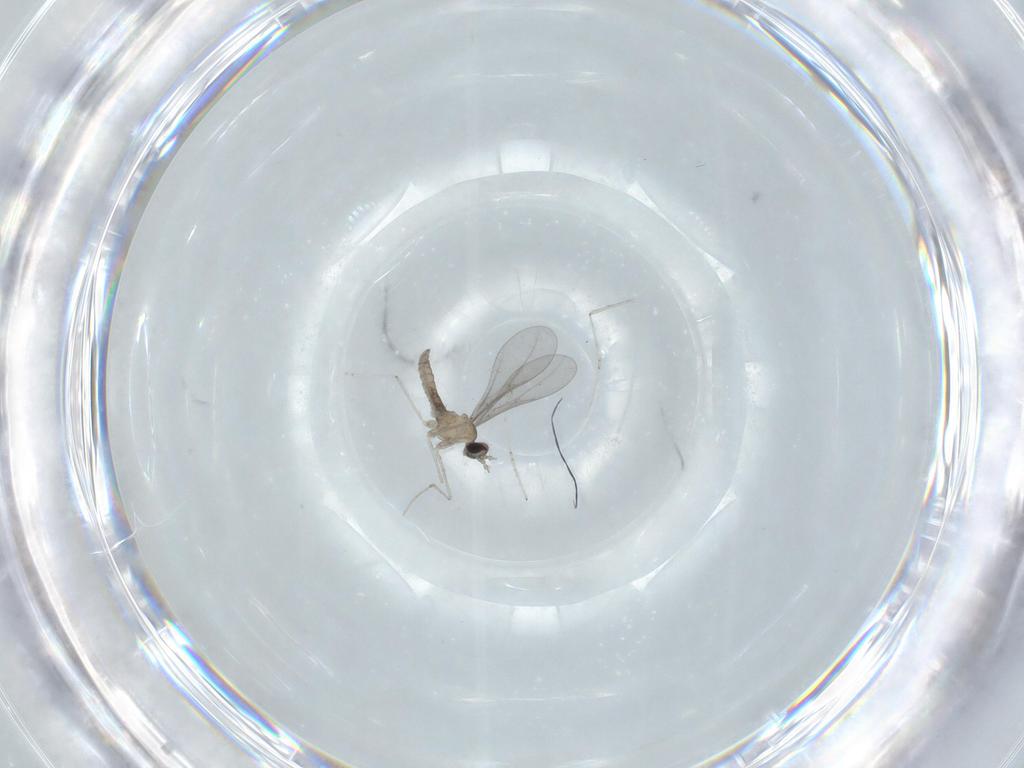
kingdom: Animalia
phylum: Arthropoda
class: Insecta
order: Diptera
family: Cecidomyiidae
